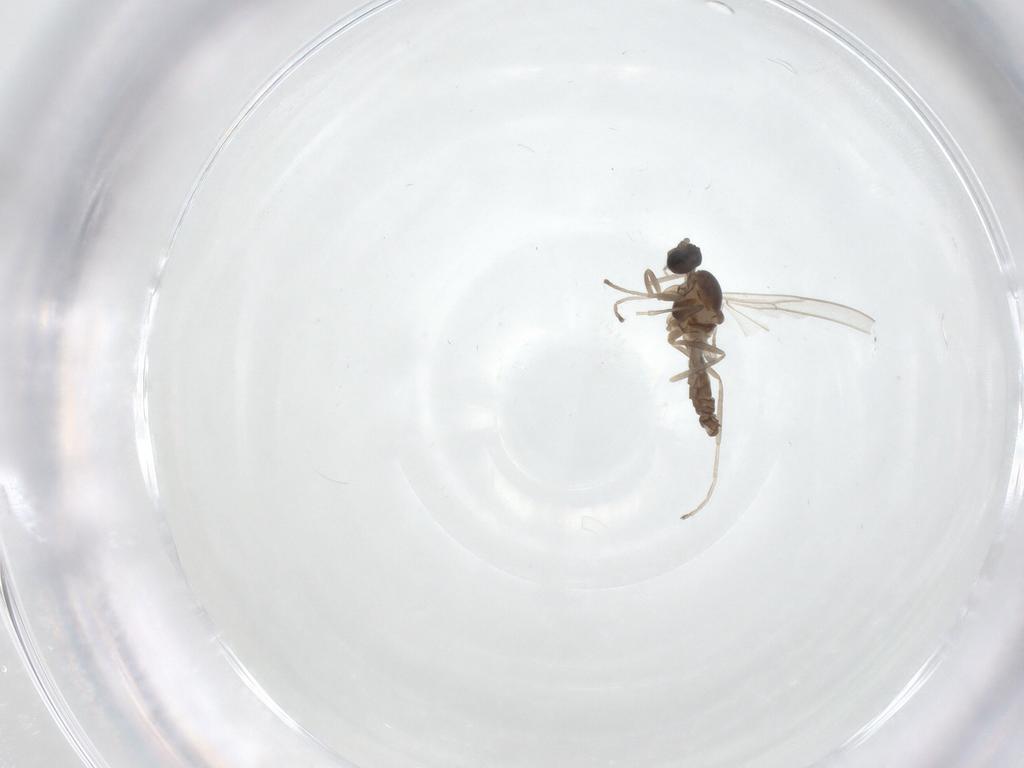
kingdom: Animalia
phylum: Arthropoda
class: Insecta
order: Diptera
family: Cecidomyiidae
